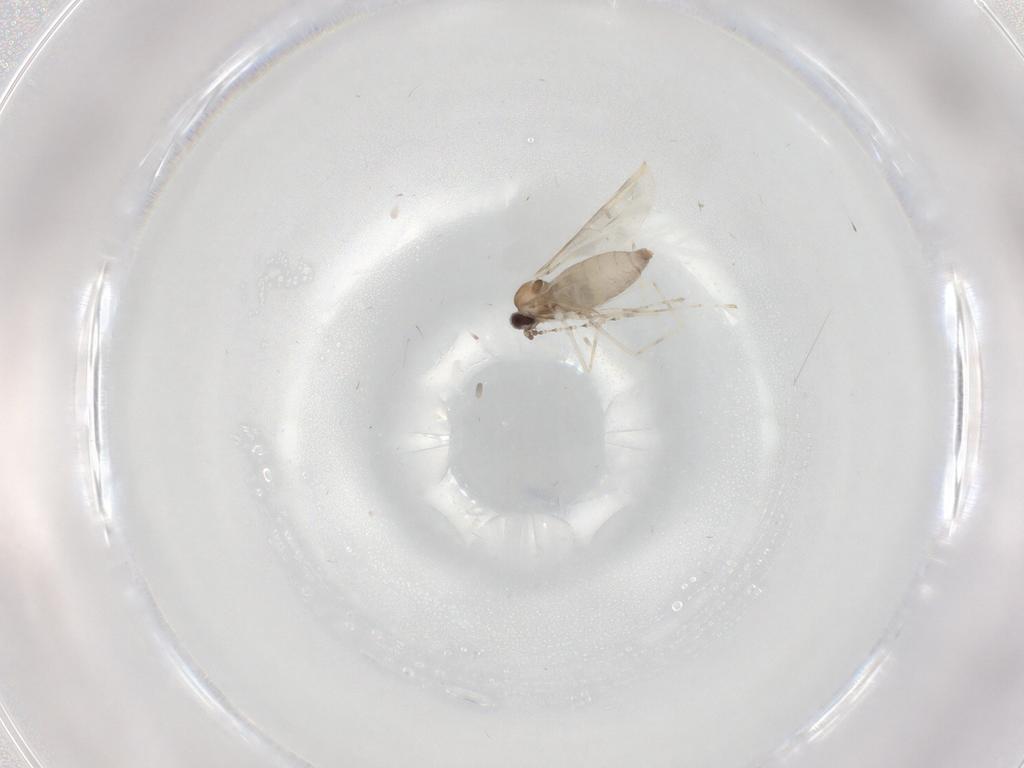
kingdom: Animalia
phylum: Arthropoda
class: Insecta
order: Diptera
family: Cecidomyiidae
